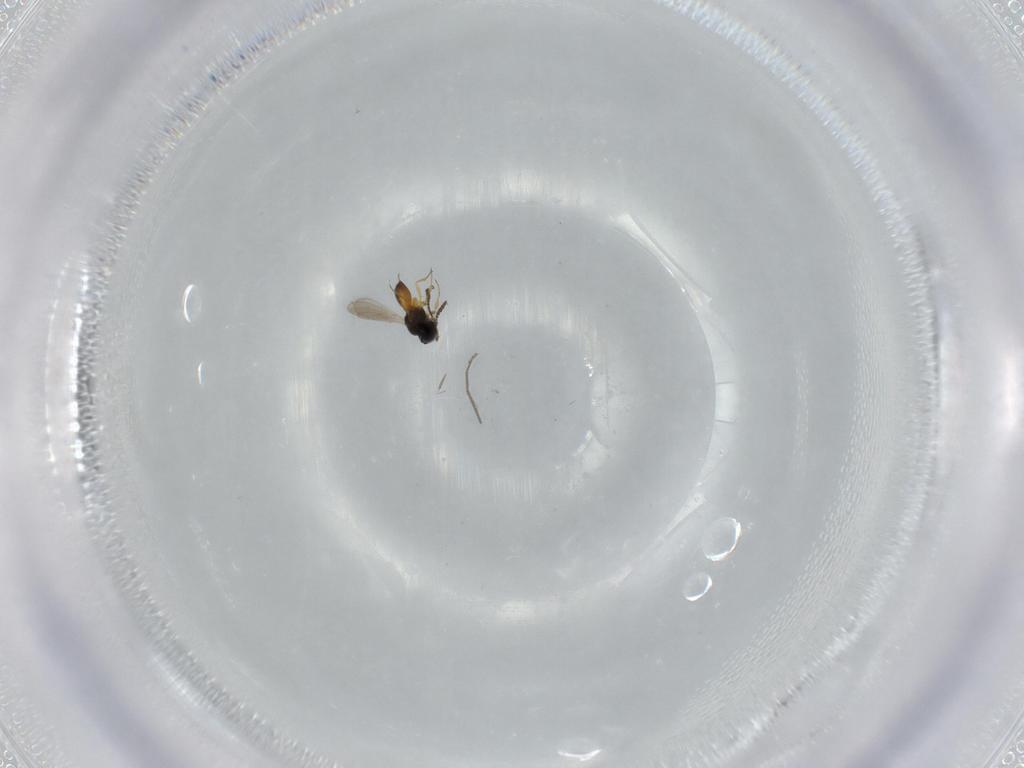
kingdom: Animalia
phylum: Arthropoda
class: Insecta
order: Hymenoptera
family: Scelionidae
